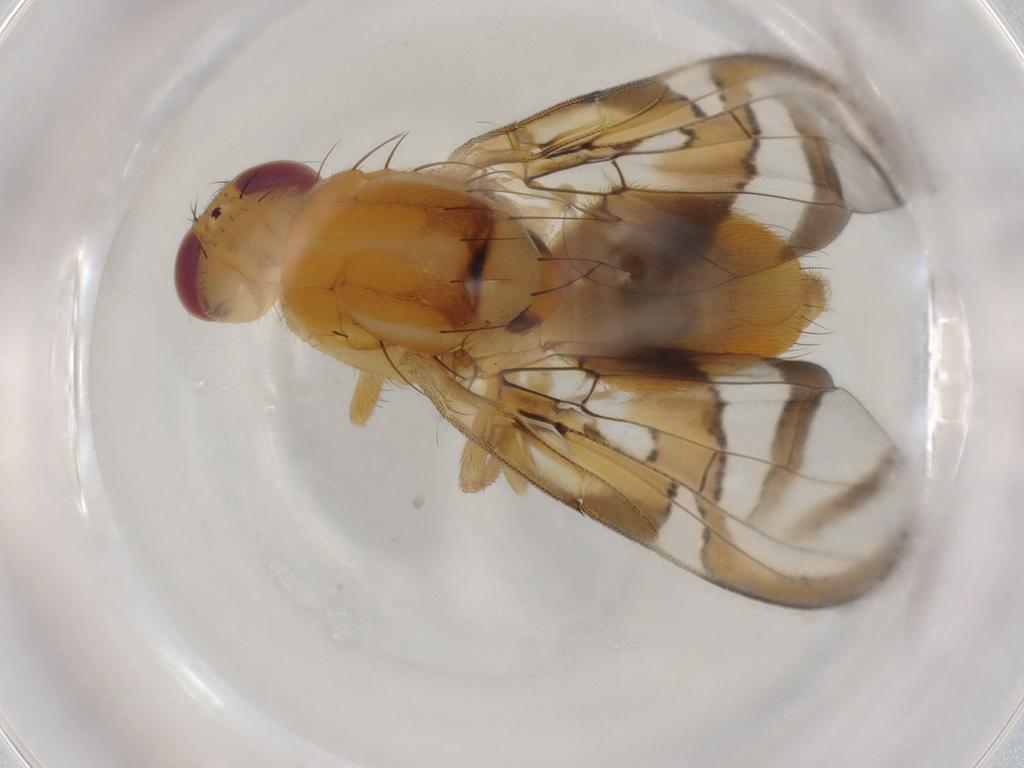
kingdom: Animalia
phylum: Arthropoda
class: Insecta
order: Diptera
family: Tephritidae
